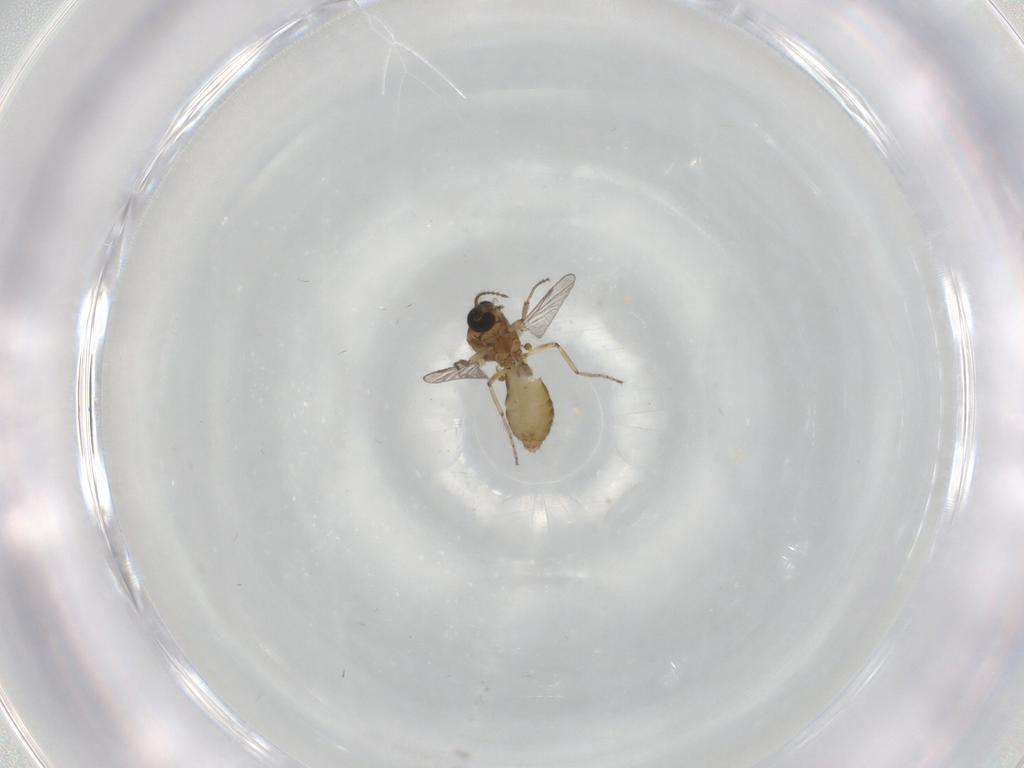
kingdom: Animalia
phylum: Arthropoda
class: Insecta
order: Diptera
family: Ceratopogonidae
